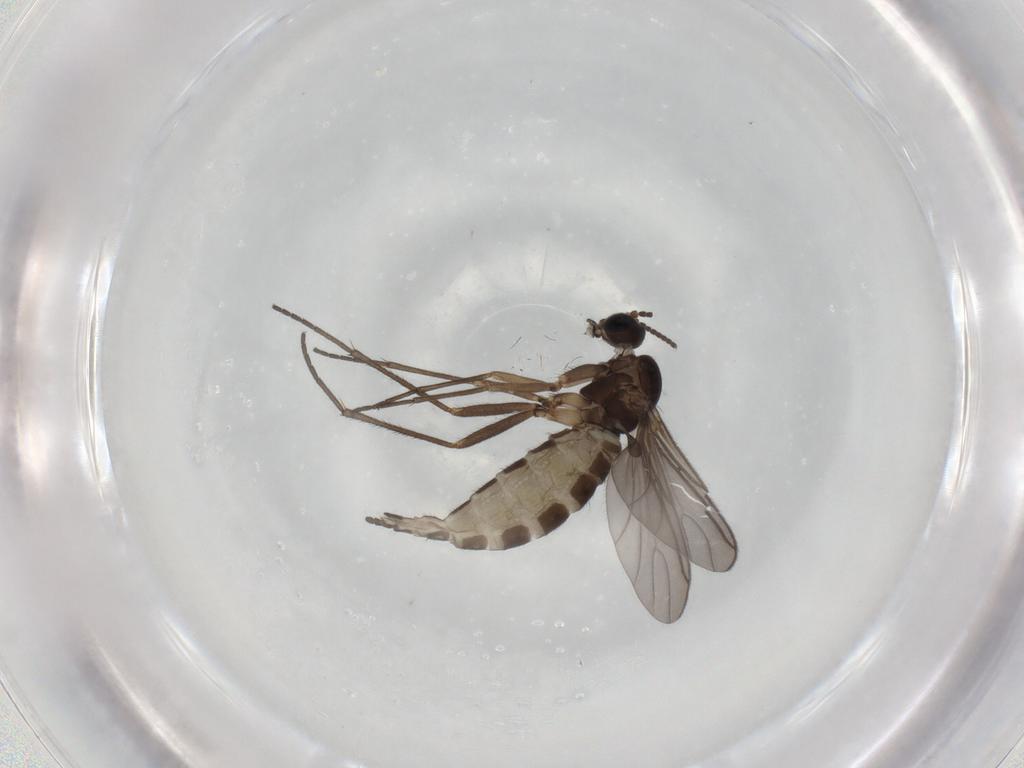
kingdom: Animalia
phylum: Arthropoda
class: Insecta
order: Diptera
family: Sciaridae
